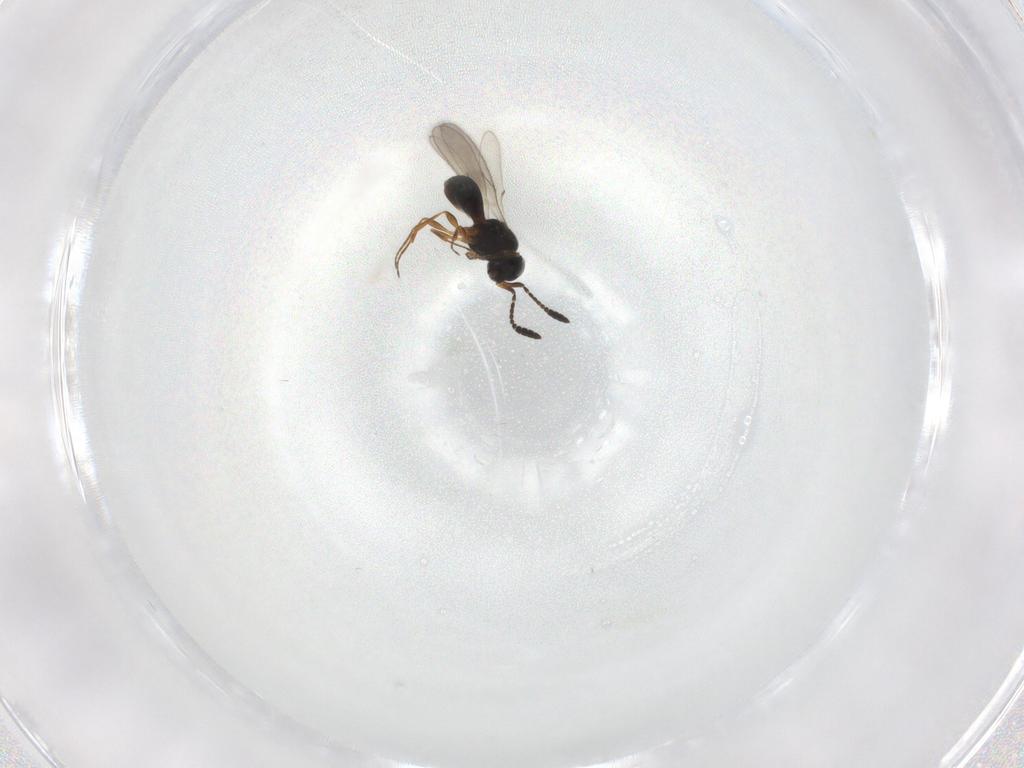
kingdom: Animalia
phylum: Arthropoda
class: Insecta
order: Hymenoptera
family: Scelionidae
